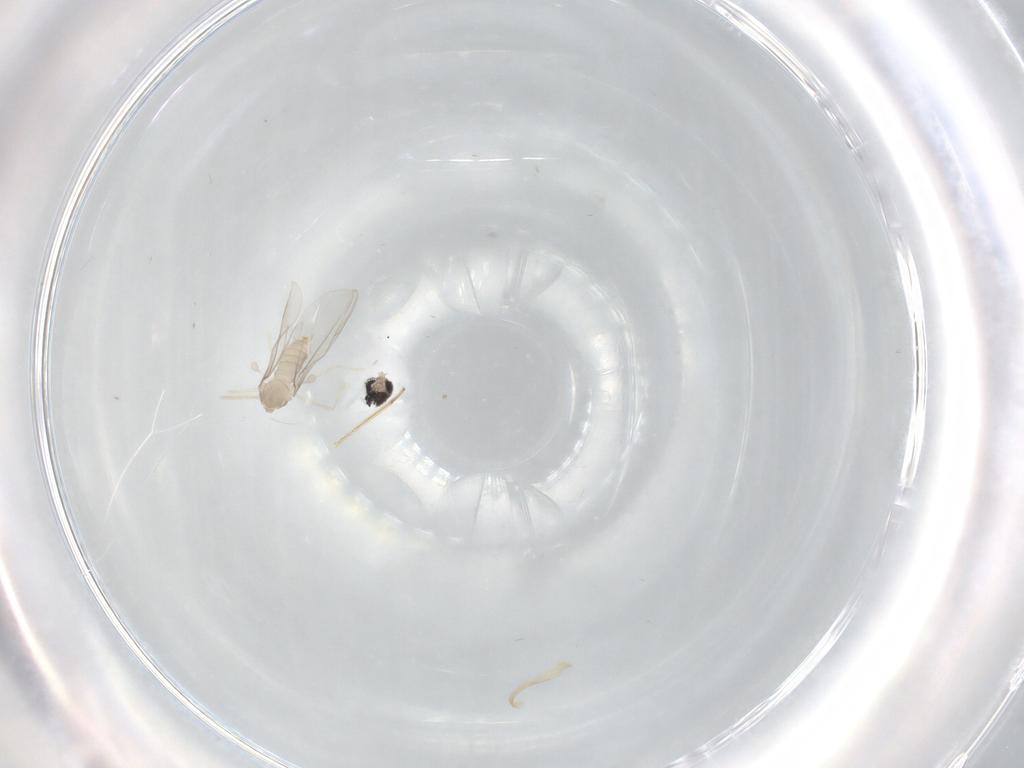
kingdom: Animalia
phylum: Arthropoda
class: Insecta
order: Diptera
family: Cecidomyiidae
